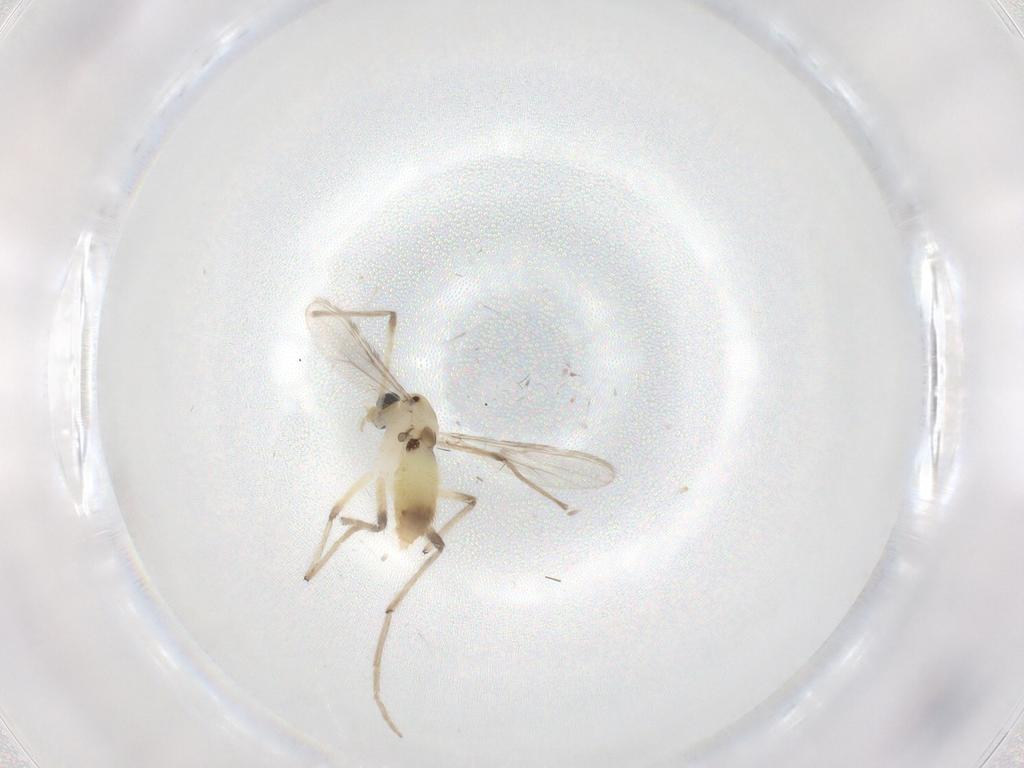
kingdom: Animalia
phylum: Arthropoda
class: Insecta
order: Diptera
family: Chironomidae
